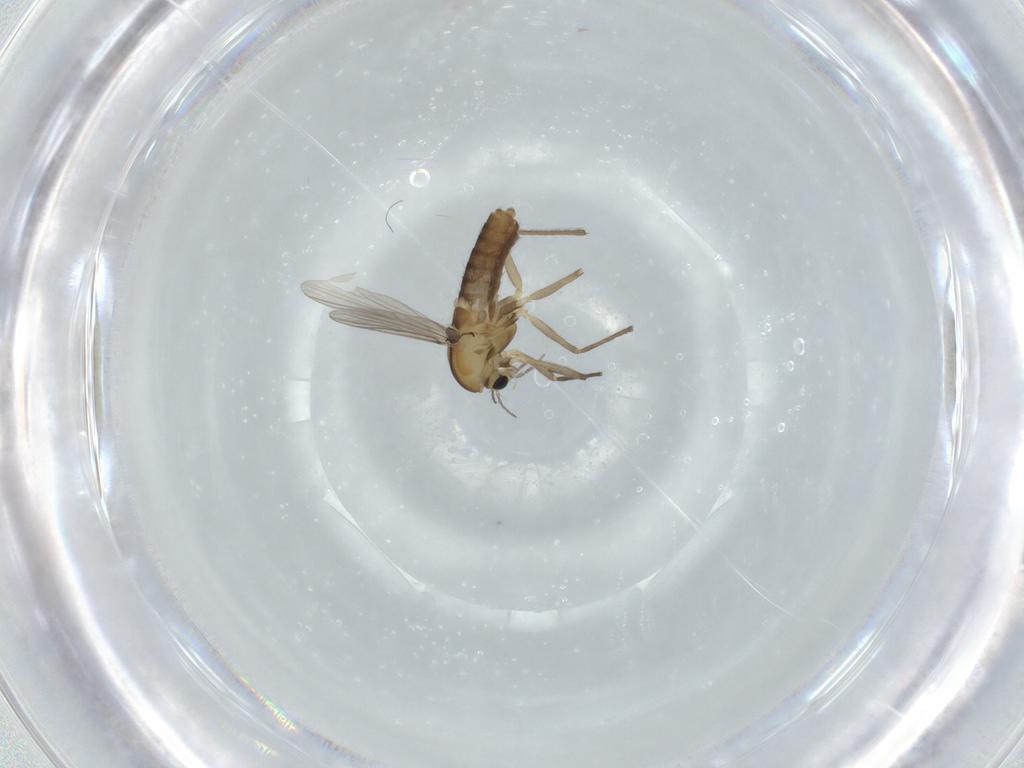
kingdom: Animalia
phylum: Arthropoda
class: Insecta
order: Diptera
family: Chironomidae
